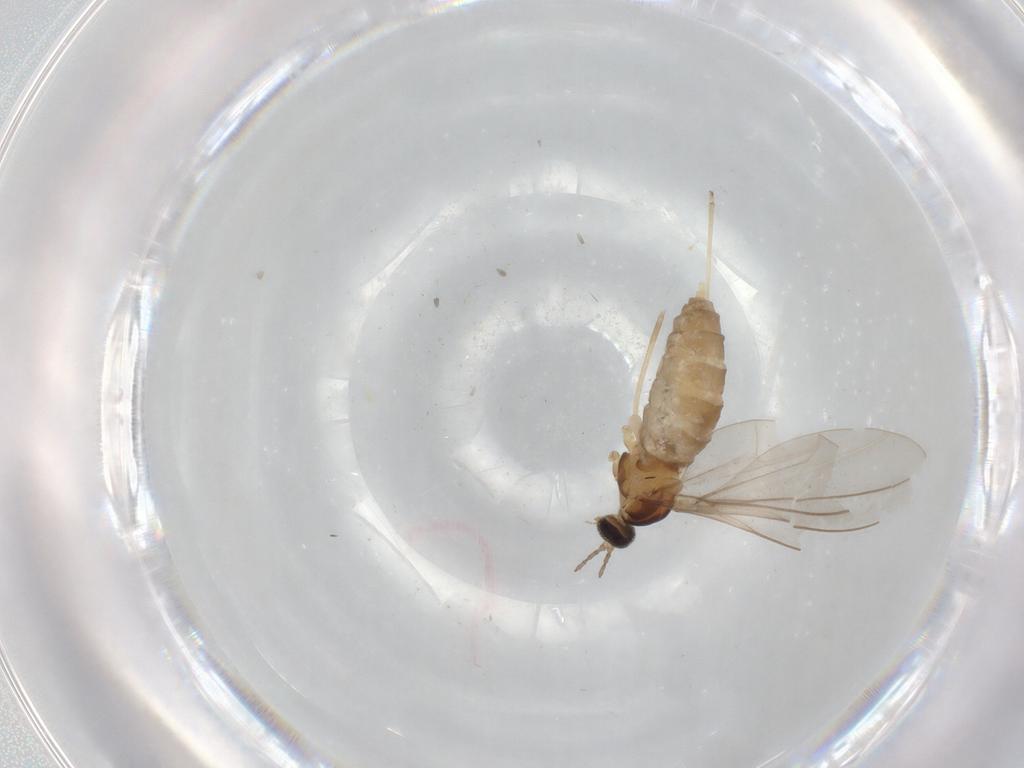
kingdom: Animalia
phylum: Arthropoda
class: Insecta
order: Diptera
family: Cecidomyiidae
